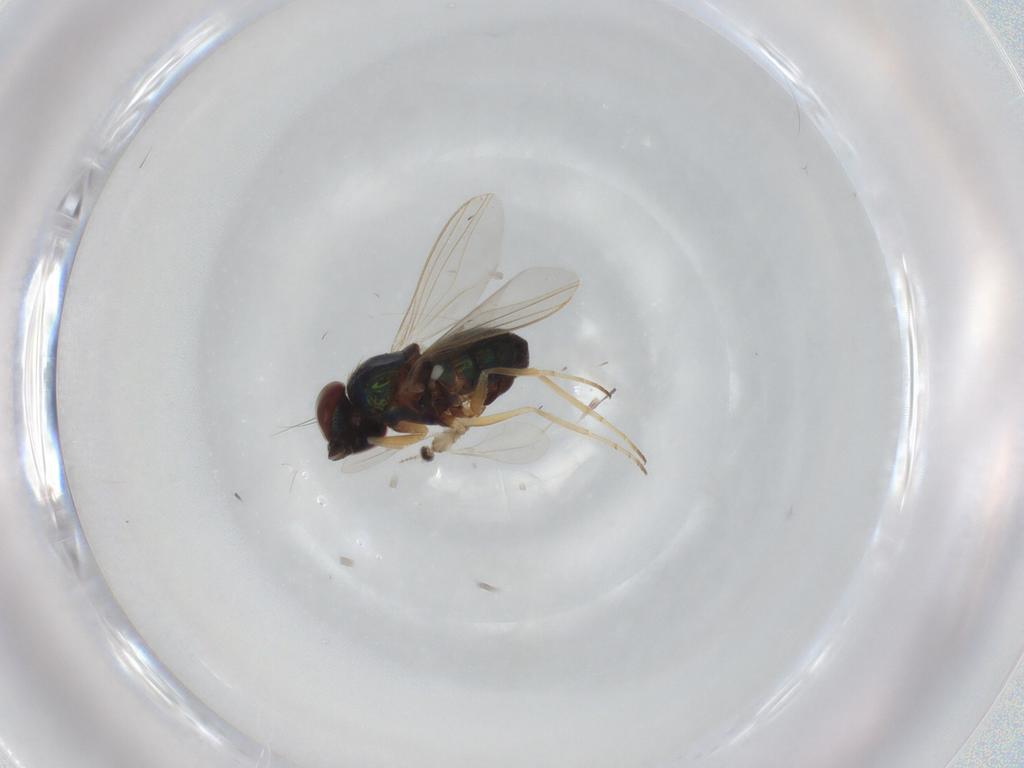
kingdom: Animalia
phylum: Arthropoda
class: Insecta
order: Diptera
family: Dolichopodidae
